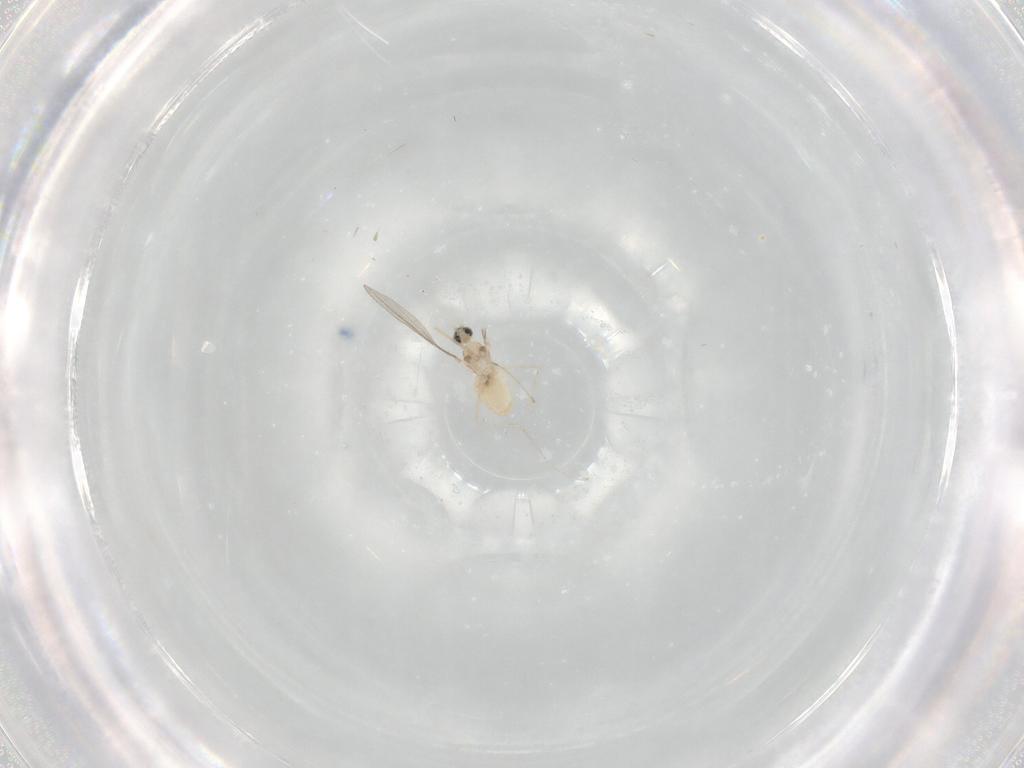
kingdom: Animalia
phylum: Arthropoda
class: Insecta
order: Diptera
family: Cecidomyiidae
